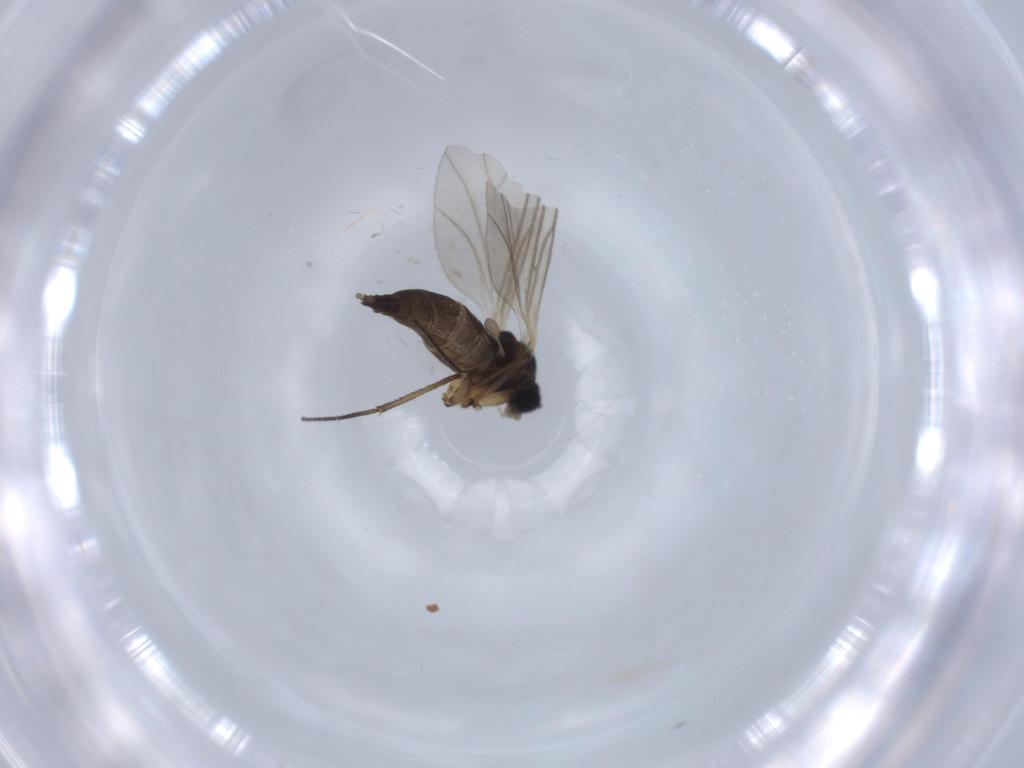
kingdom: Animalia
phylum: Arthropoda
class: Insecta
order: Diptera
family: Sciaridae
